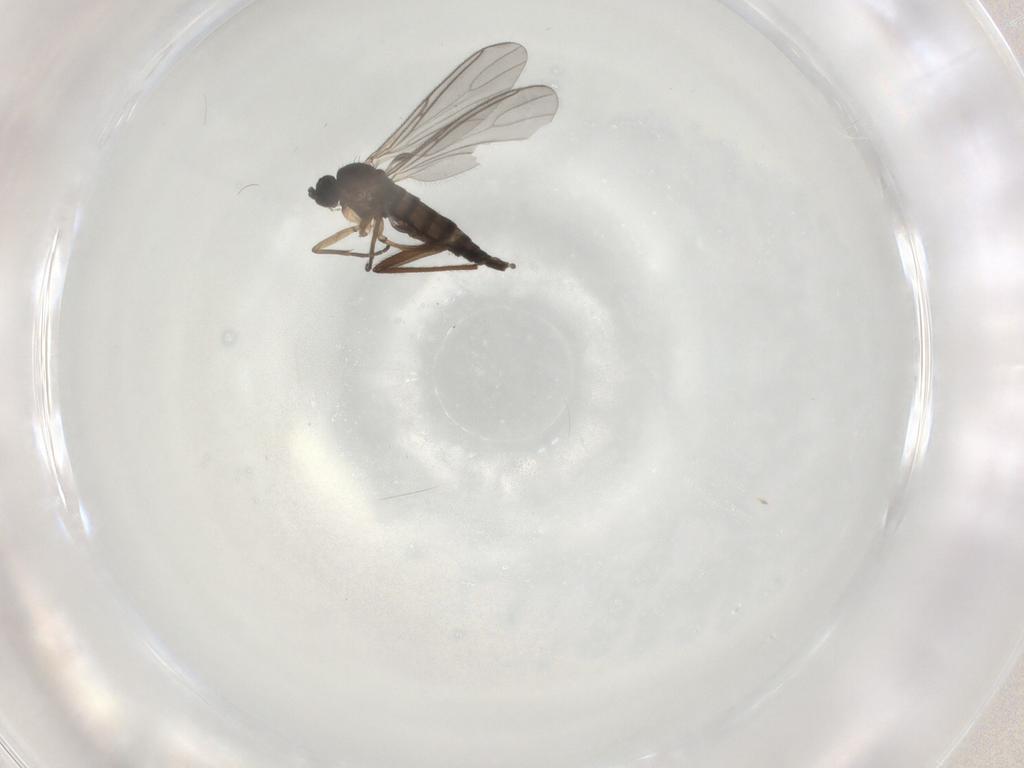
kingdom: Animalia
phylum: Arthropoda
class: Insecta
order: Diptera
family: Sciaridae
